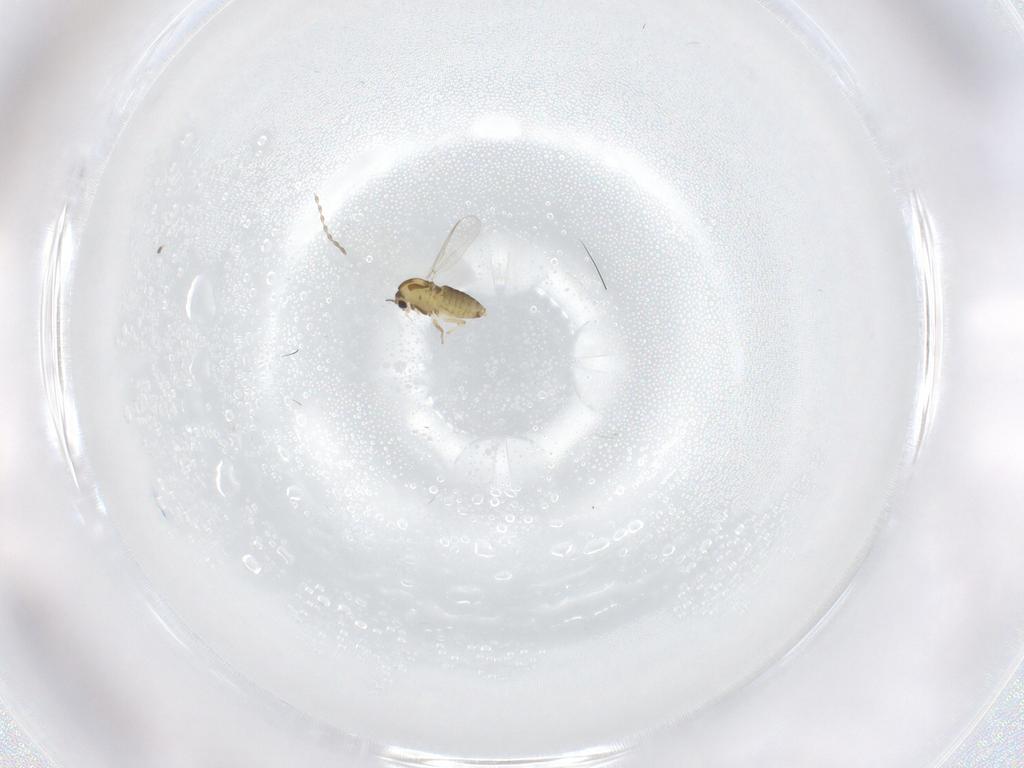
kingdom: Animalia
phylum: Arthropoda
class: Insecta
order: Diptera
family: Chironomidae
